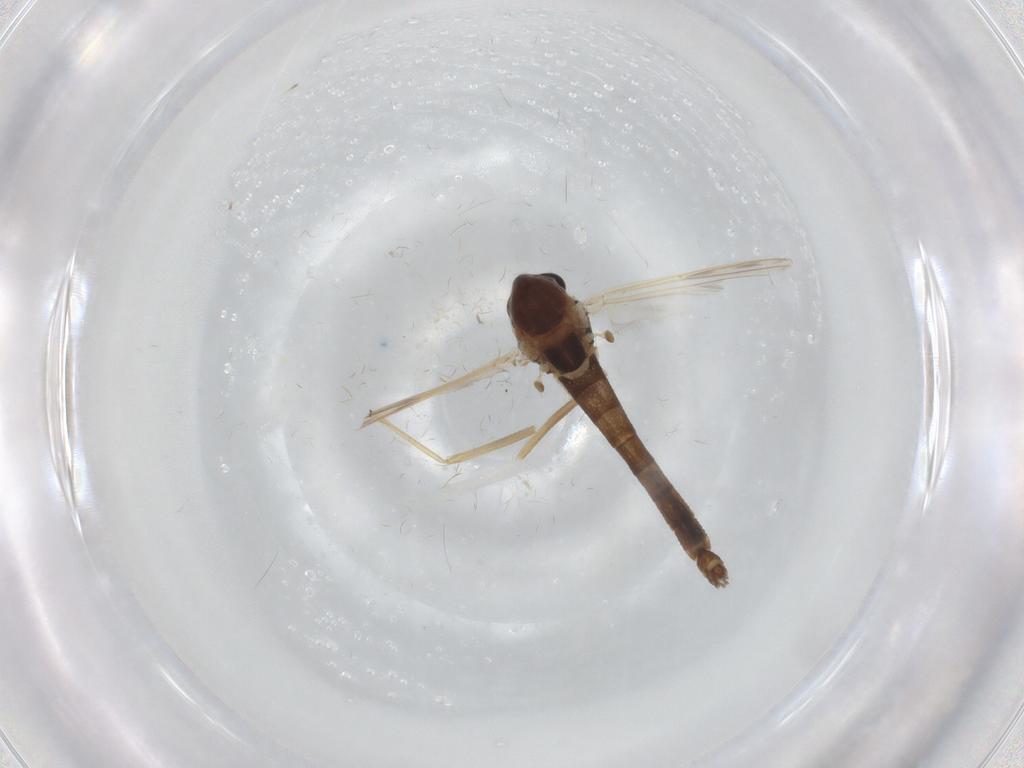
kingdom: Animalia
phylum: Arthropoda
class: Insecta
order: Diptera
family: Chironomidae
